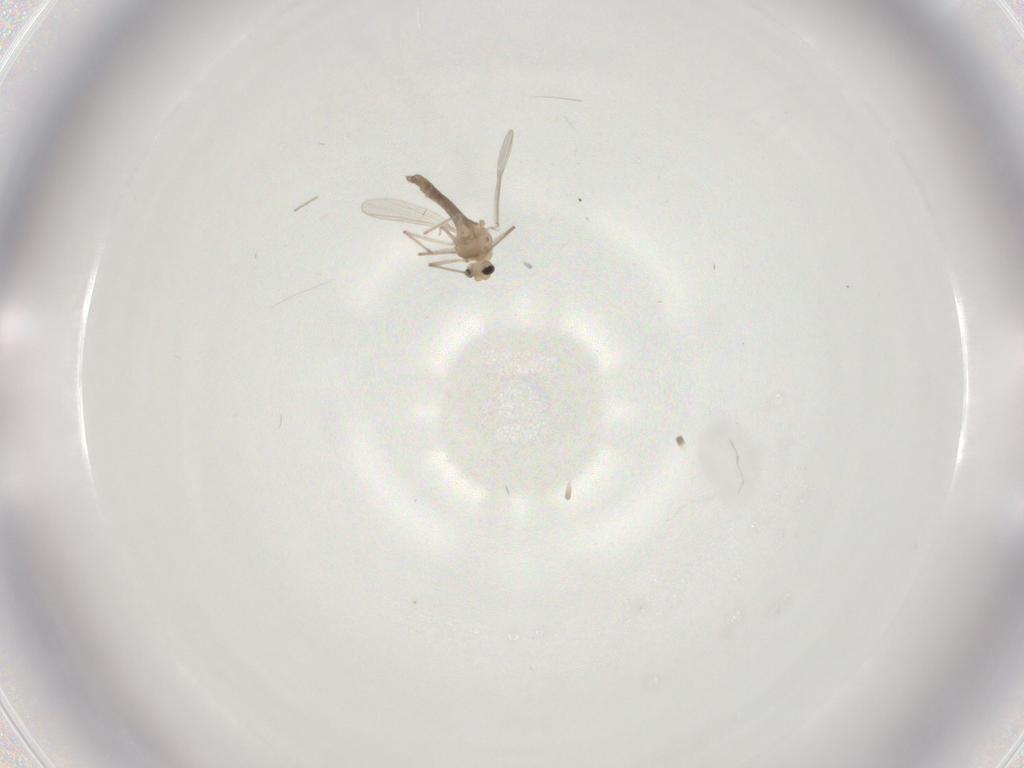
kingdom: Animalia
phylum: Arthropoda
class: Insecta
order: Diptera
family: Chironomidae
